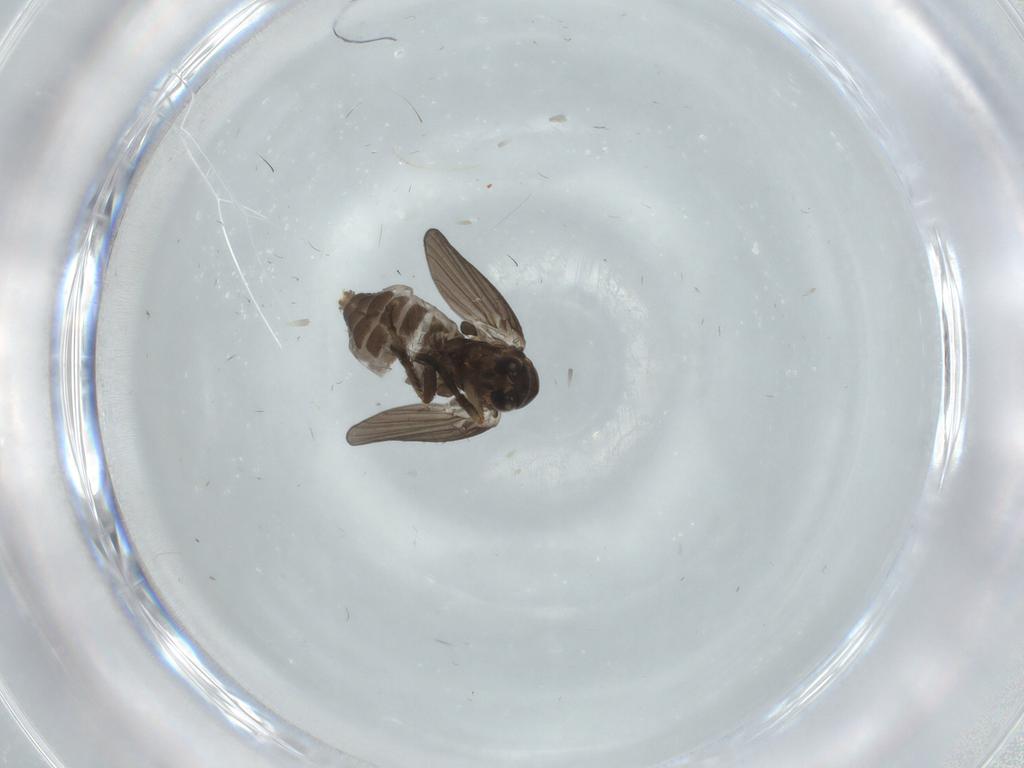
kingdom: Animalia
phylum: Arthropoda
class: Insecta
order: Diptera
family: Psychodidae
